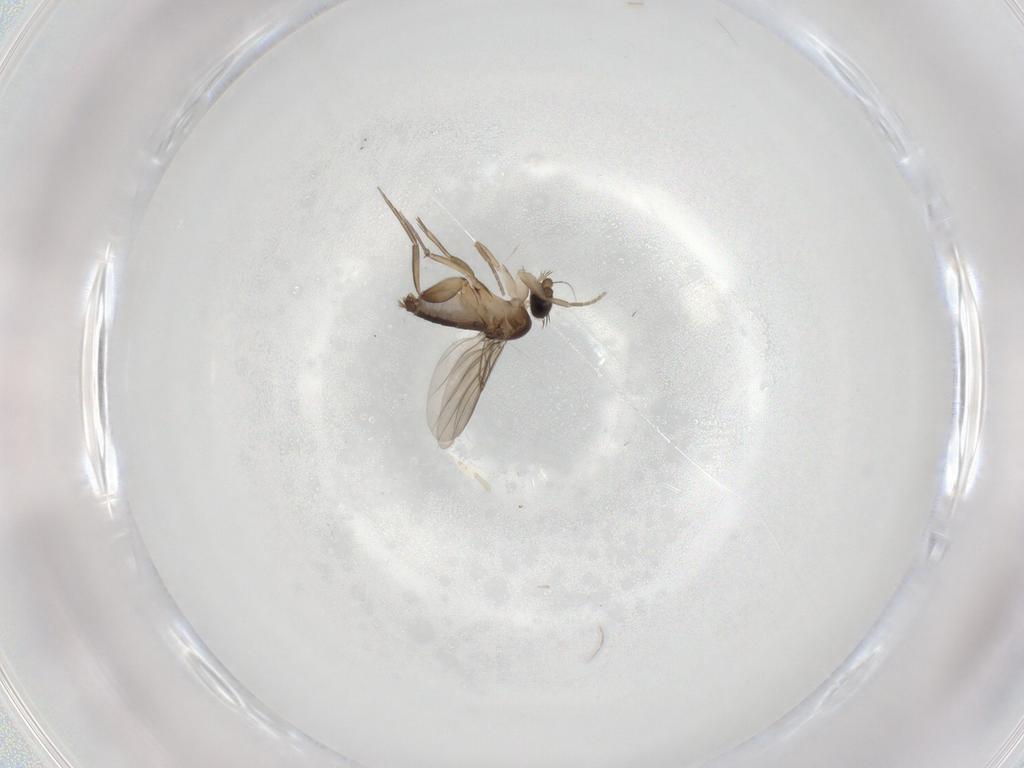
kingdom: Animalia
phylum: Arthropoda
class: Insecta
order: Diptera
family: Phoridae
